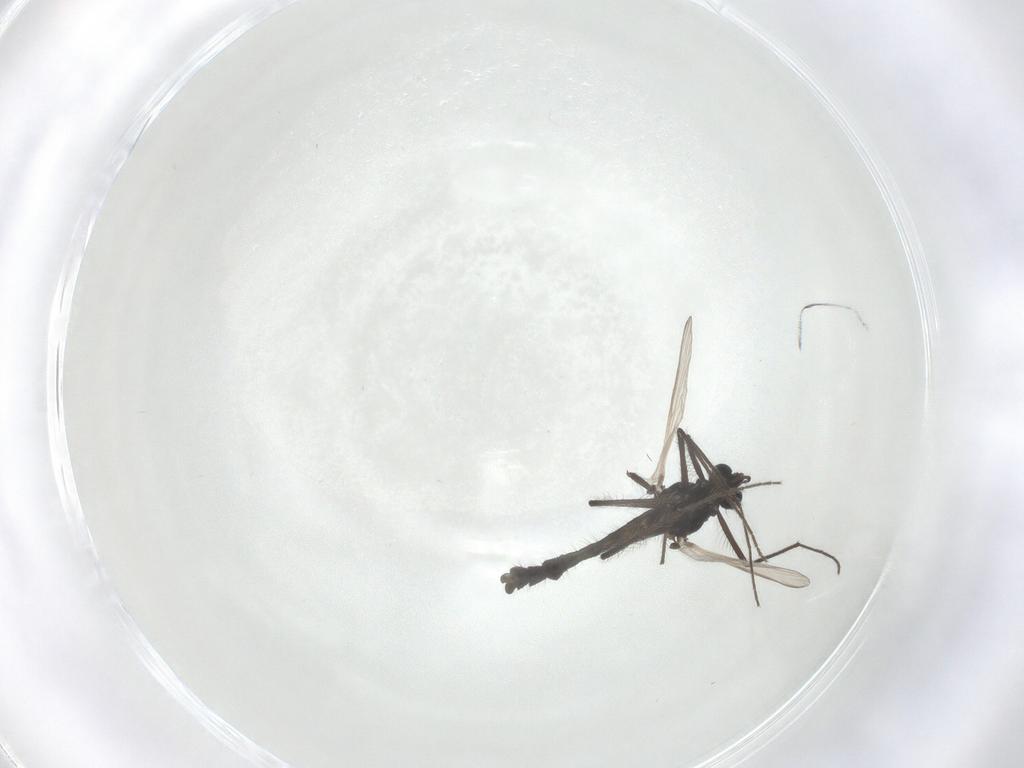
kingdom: Animalia
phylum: Arthropoda
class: Insecta
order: Diptera
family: Chironomidae
